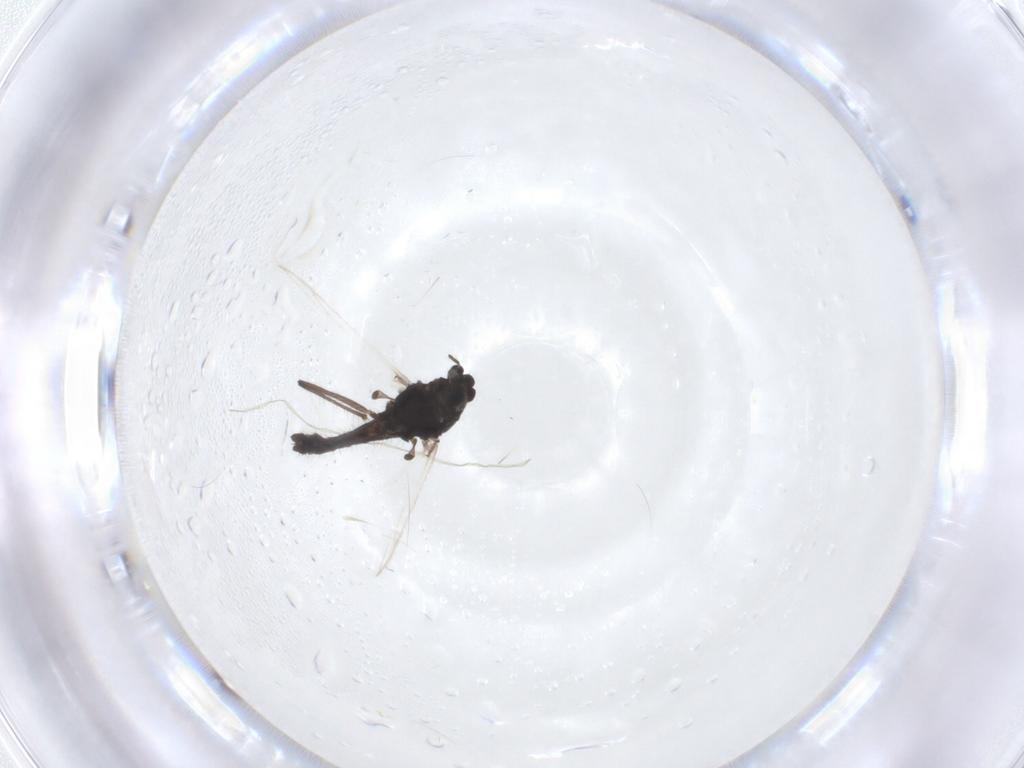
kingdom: Animalia
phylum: Arthropoda
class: Insecta
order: Diptera
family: Chironomidae
